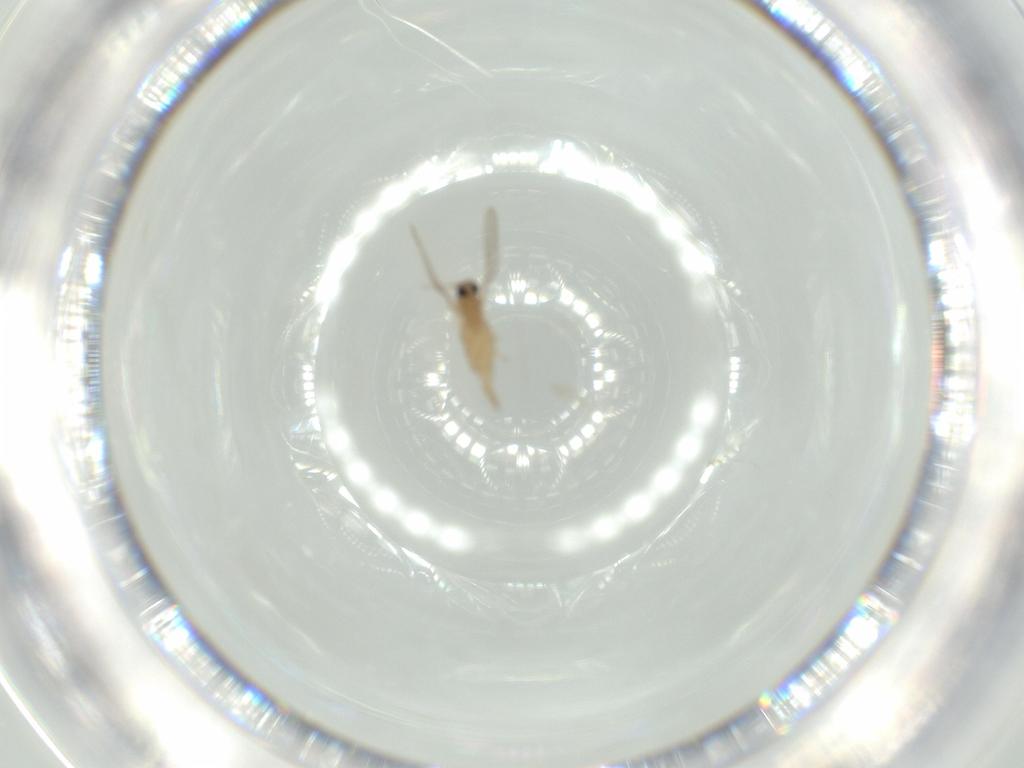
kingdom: Animalia
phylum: Arthropoda
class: Insecta
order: Diptera
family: Cecidomyiidae
